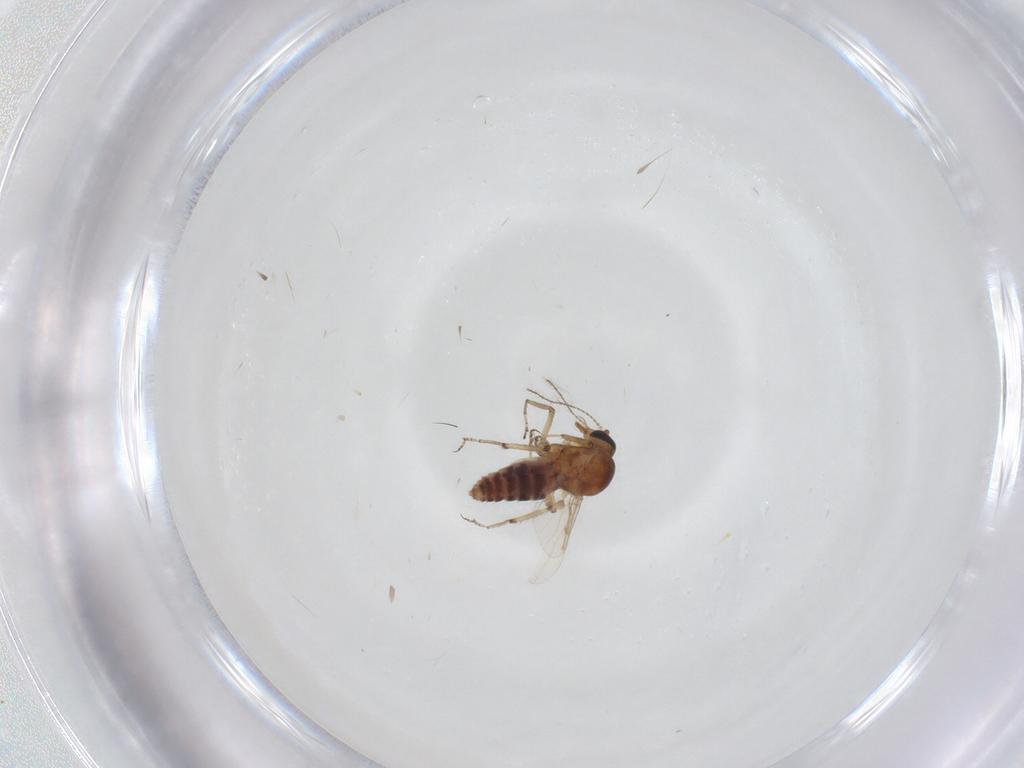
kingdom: Animalia
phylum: Arthropoda
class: Insecta
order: Diptera
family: Ceratopogonidae
